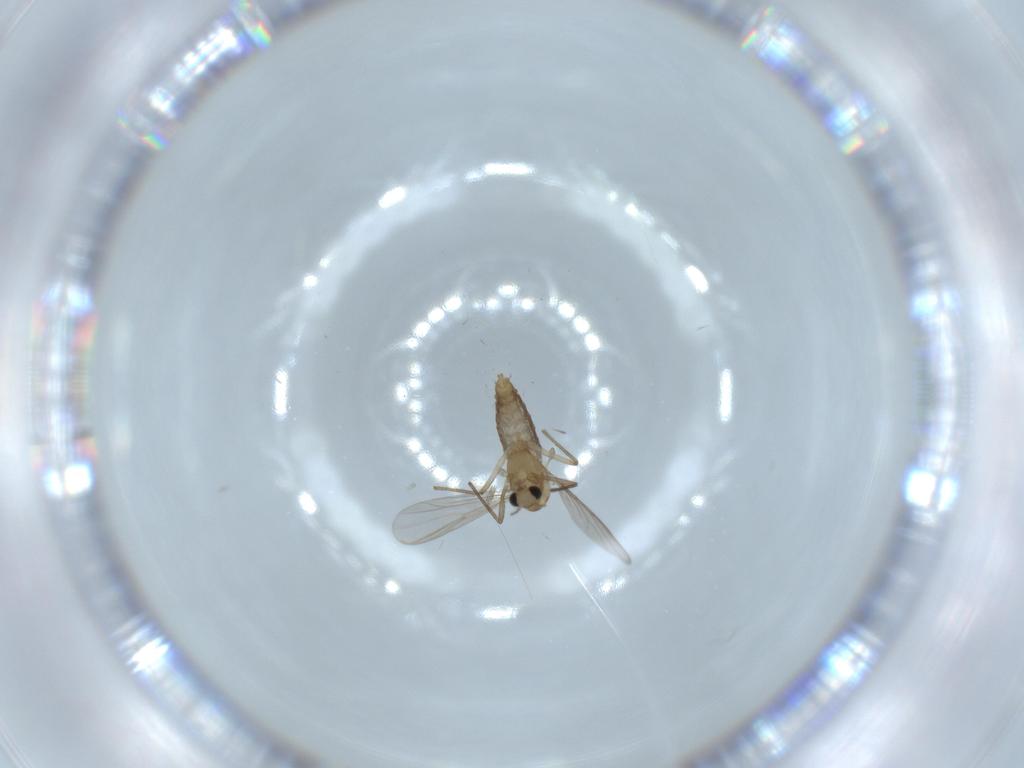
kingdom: Animalia
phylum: Arthropoda
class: Insecta
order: Diptera
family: Chironomidae
